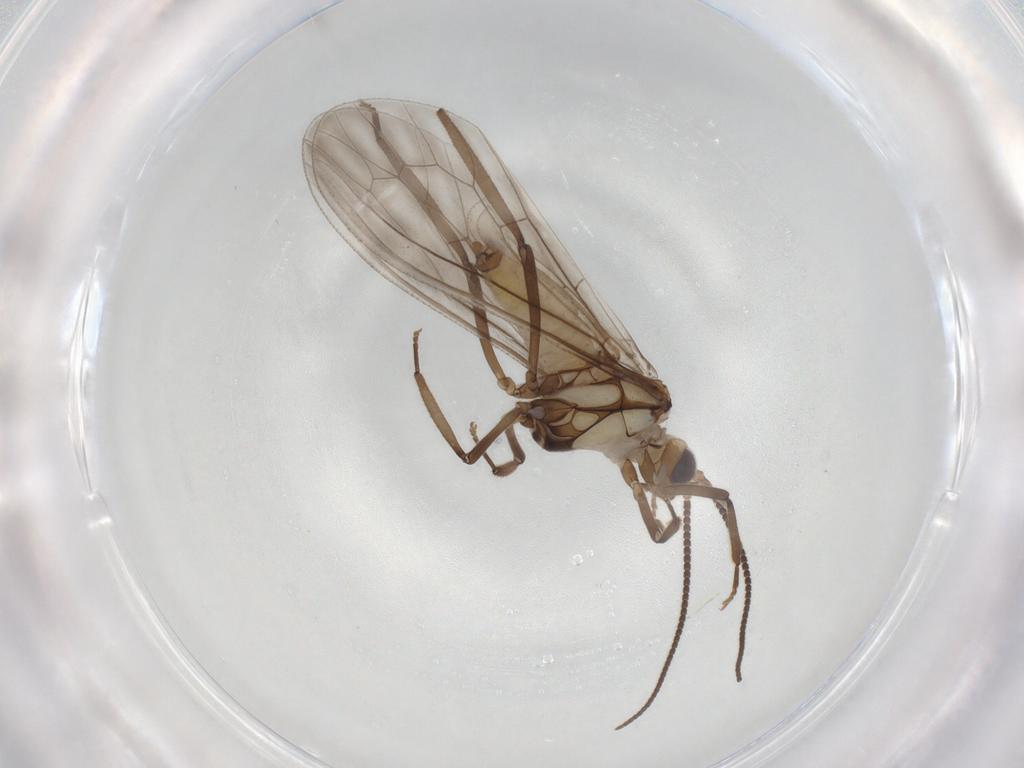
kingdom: Animalia
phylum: Arthropoda
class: Insecta
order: Neuroptera
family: Coniopterygidae
